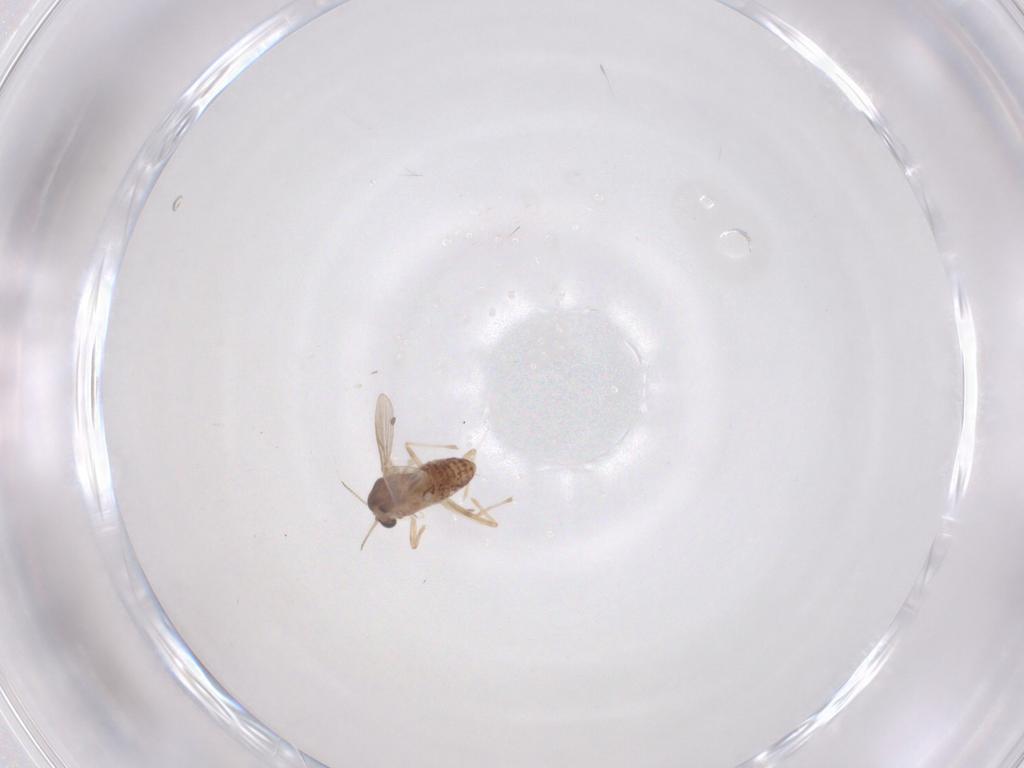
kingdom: Animalia
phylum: Arthropoda
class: Insecta
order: Diptera
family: Chironomidae
